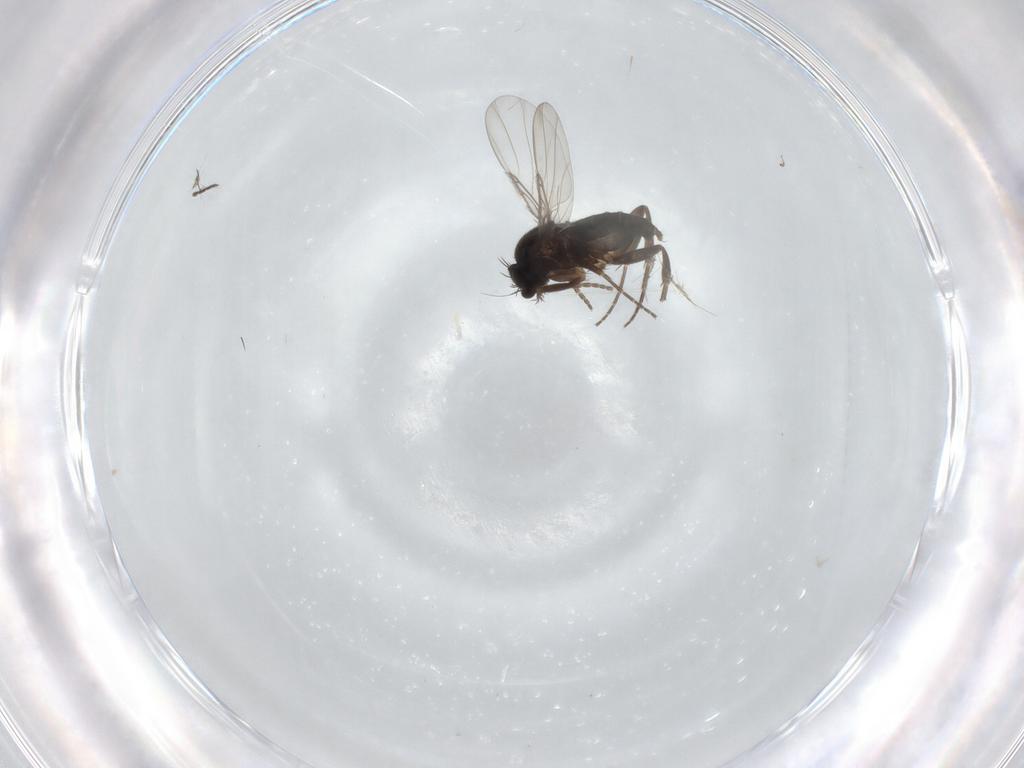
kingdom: Animalia
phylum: Arthropoda
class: Insecta
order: Diptera
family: Phoridae
